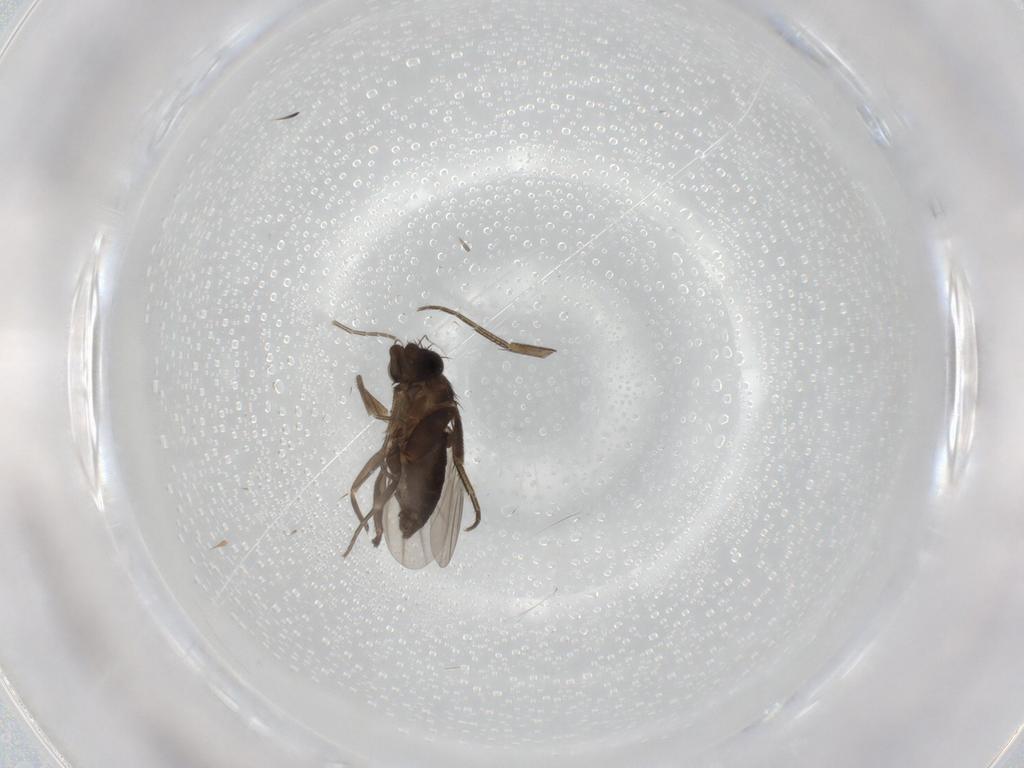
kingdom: Animalia
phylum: Arthropoda
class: Insecta
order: Diptera
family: Phoridae
